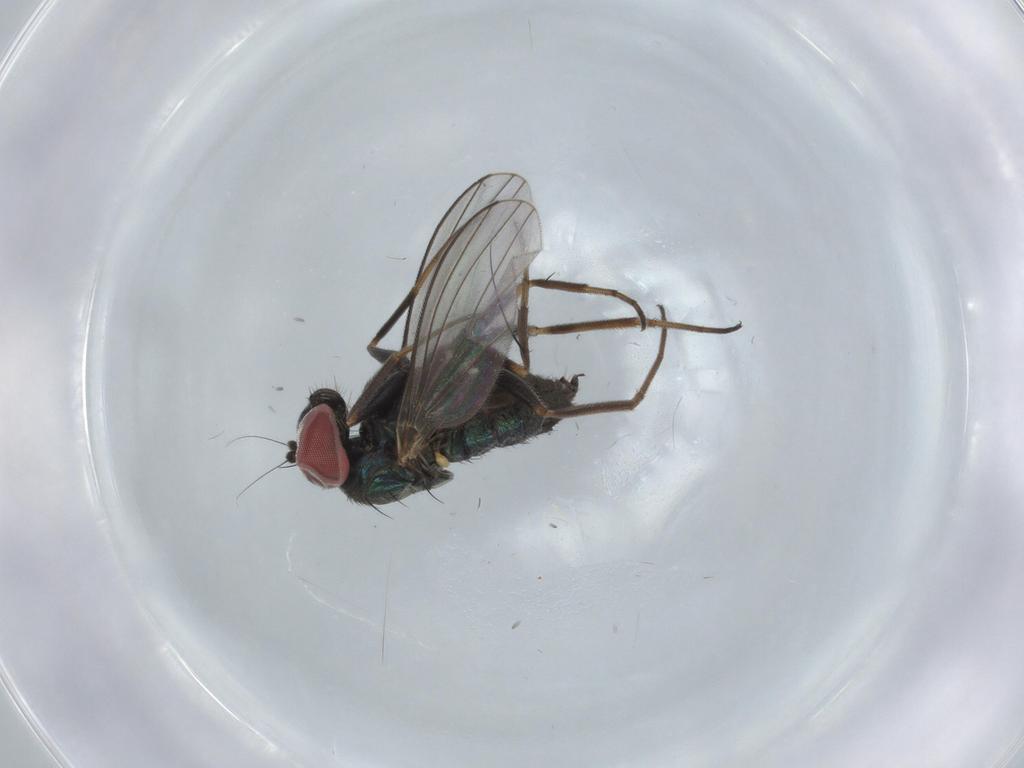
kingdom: Animalia
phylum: Arthropoda
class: Insecta
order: Diptera
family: Dolichopodidae
